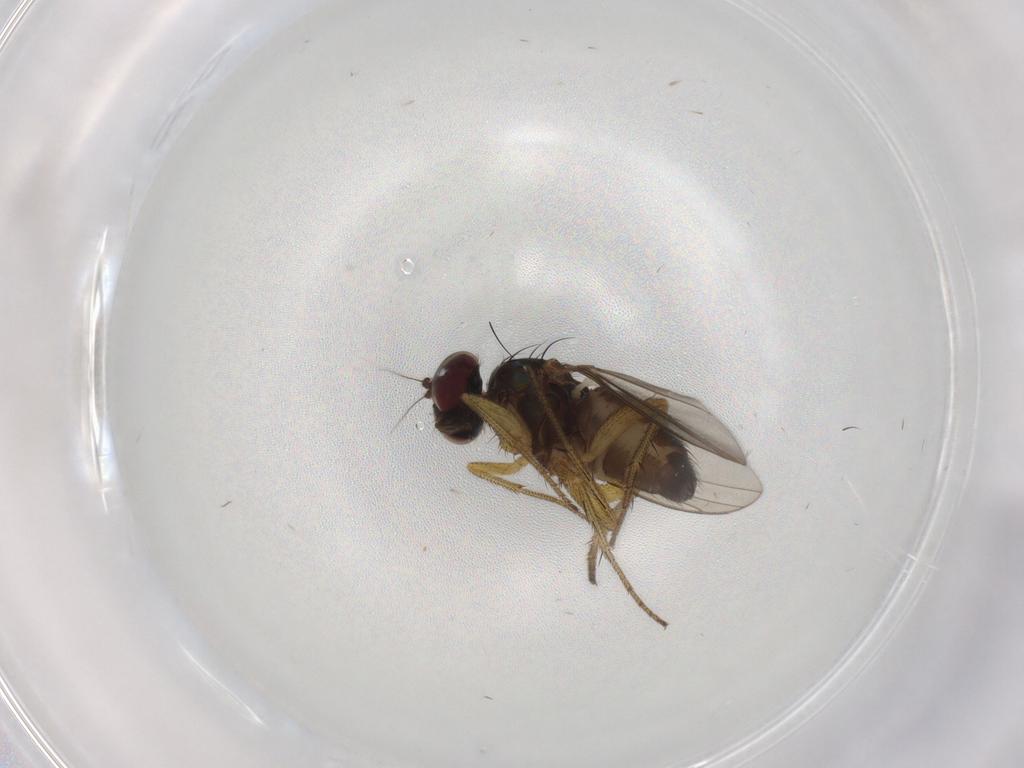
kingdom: Animalia
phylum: Arthropoda
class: Insecta
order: Diptera
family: Dolichopodidae
